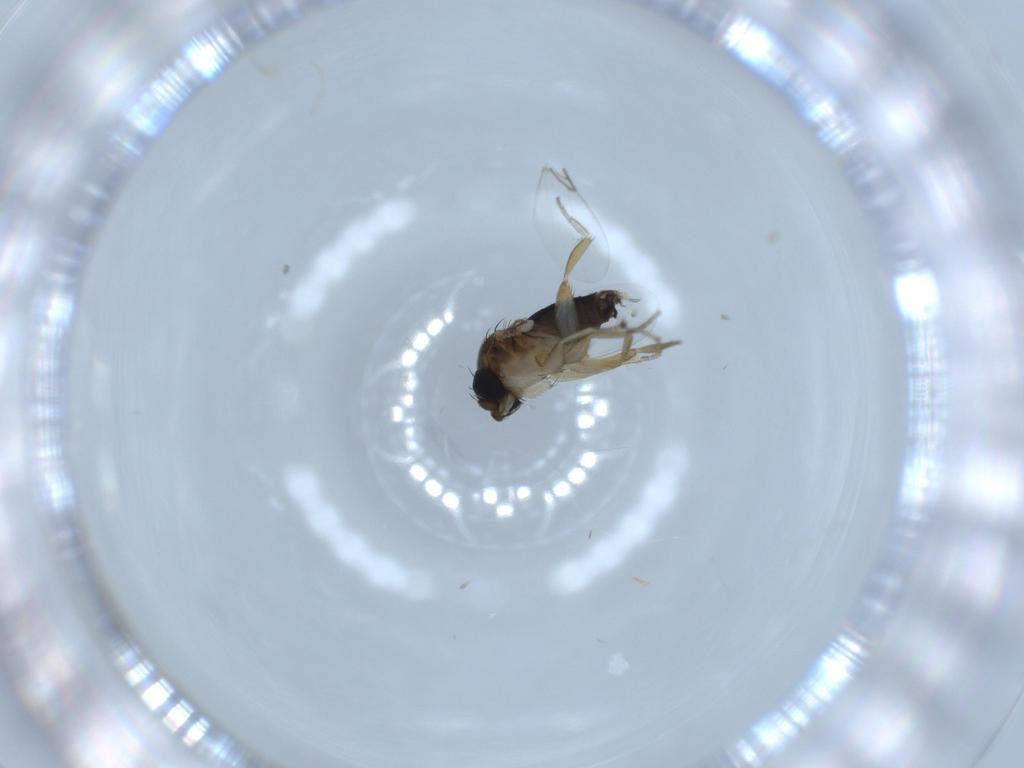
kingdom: Animalia
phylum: Arthropoda
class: Insecta
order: Diptera
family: Phoridae
